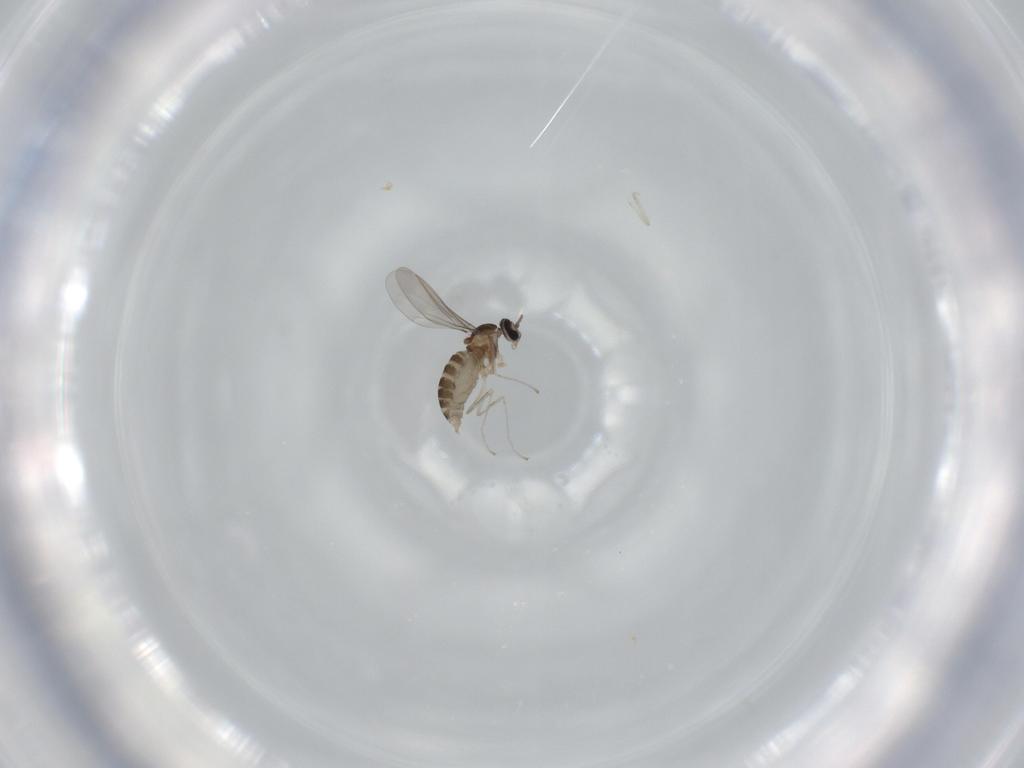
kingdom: Animalia
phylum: Arthropoda
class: Insecta
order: Diptera
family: Cecidomyiidae
